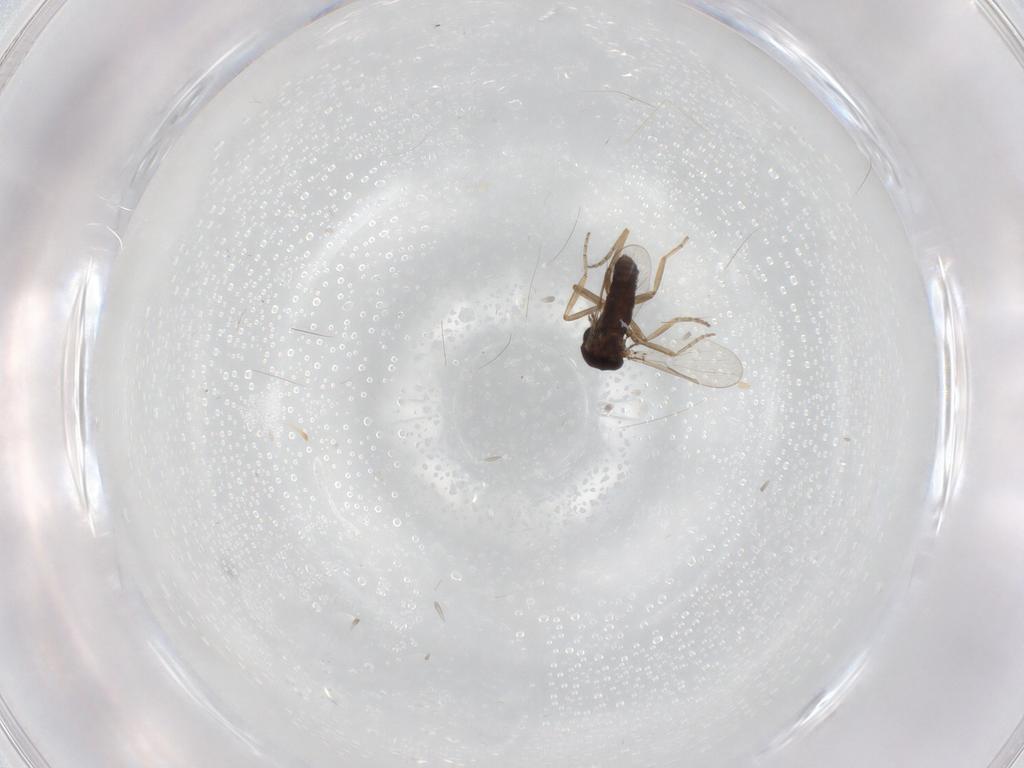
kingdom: Animalia
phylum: Arthropoda
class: Insecta
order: Diptera
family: Ceratopogonidae
